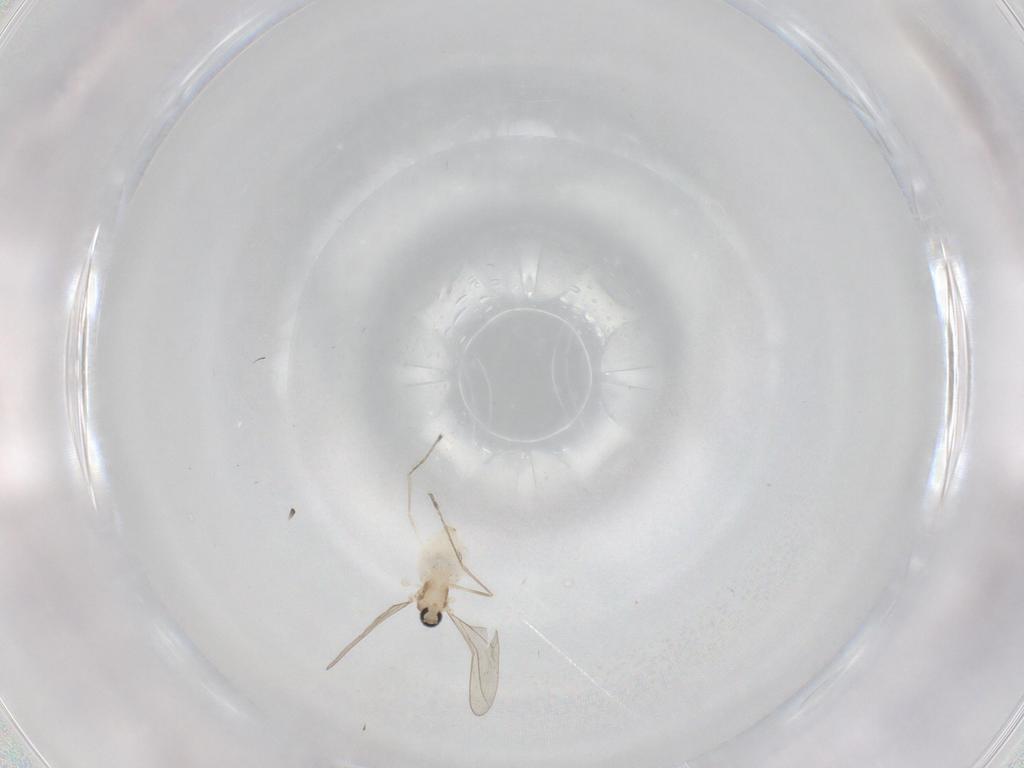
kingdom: Animalia
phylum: Arthropoda
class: Insecta
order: Diptera
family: Cecidomyiidae
